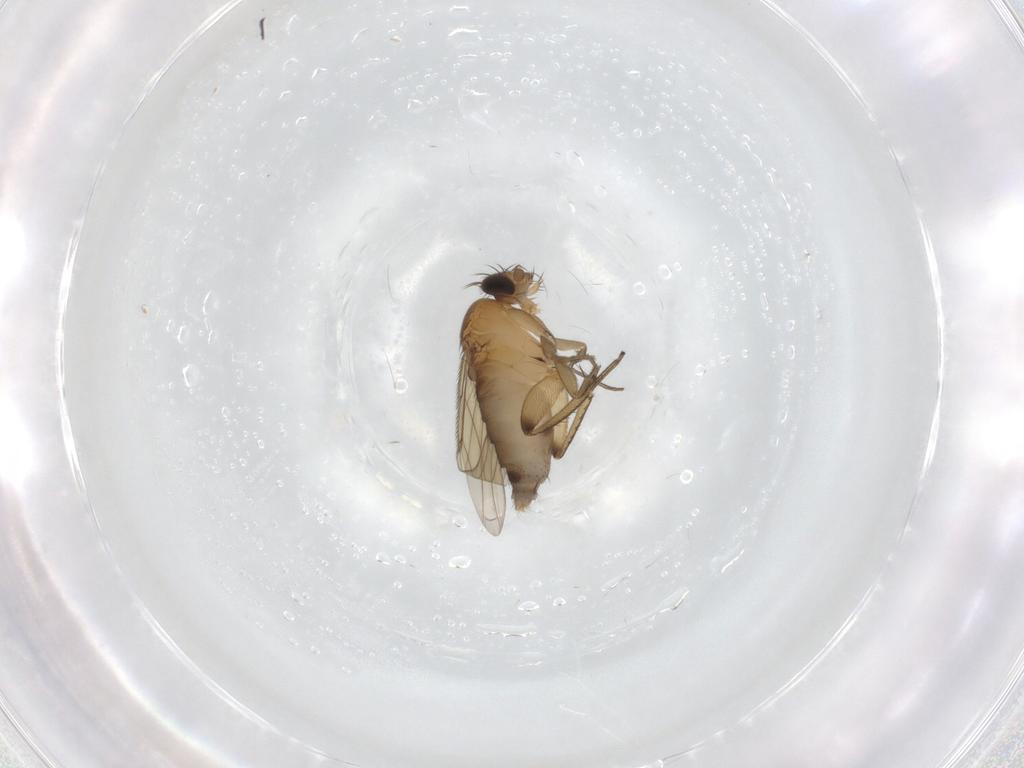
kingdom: Animalia
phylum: Arthropoda
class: Insecta
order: Diptera
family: Phoridae
